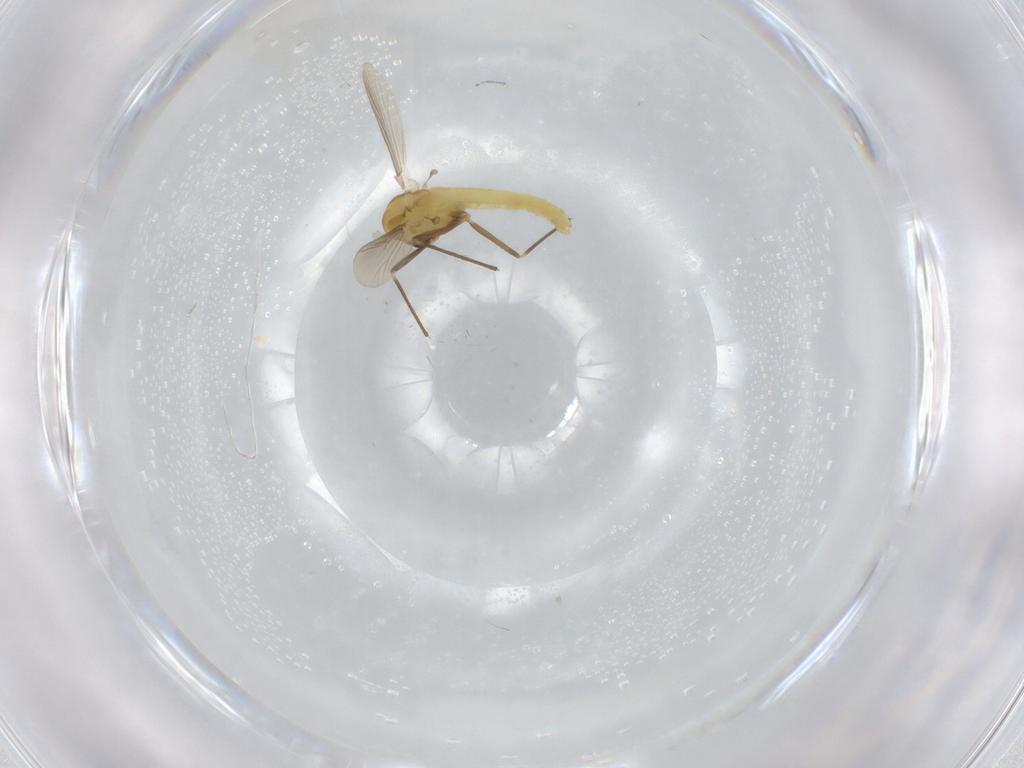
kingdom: Animalia
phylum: Arthropoda
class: Insecta
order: Diptera
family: Chironomidae
